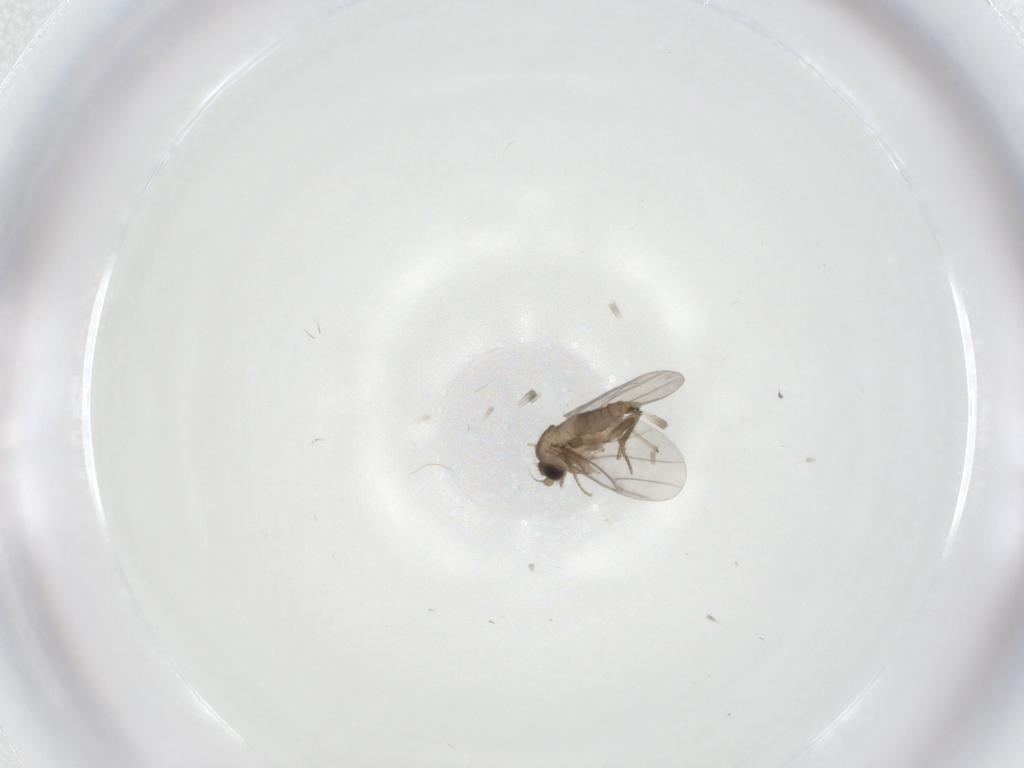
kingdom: Animalia
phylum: Arthropoda
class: Insecta
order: Diptera
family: Chironomidae
